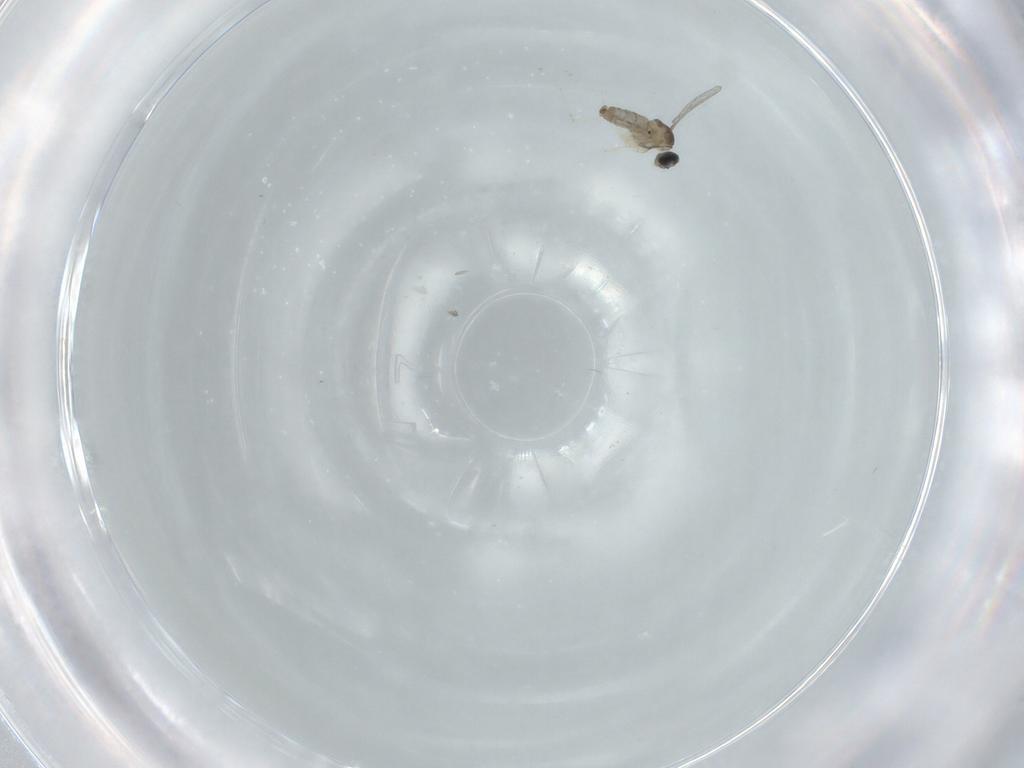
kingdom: Animalia
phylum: Arthropoda
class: Insecta
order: Diptera
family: Cecidomyiidae
